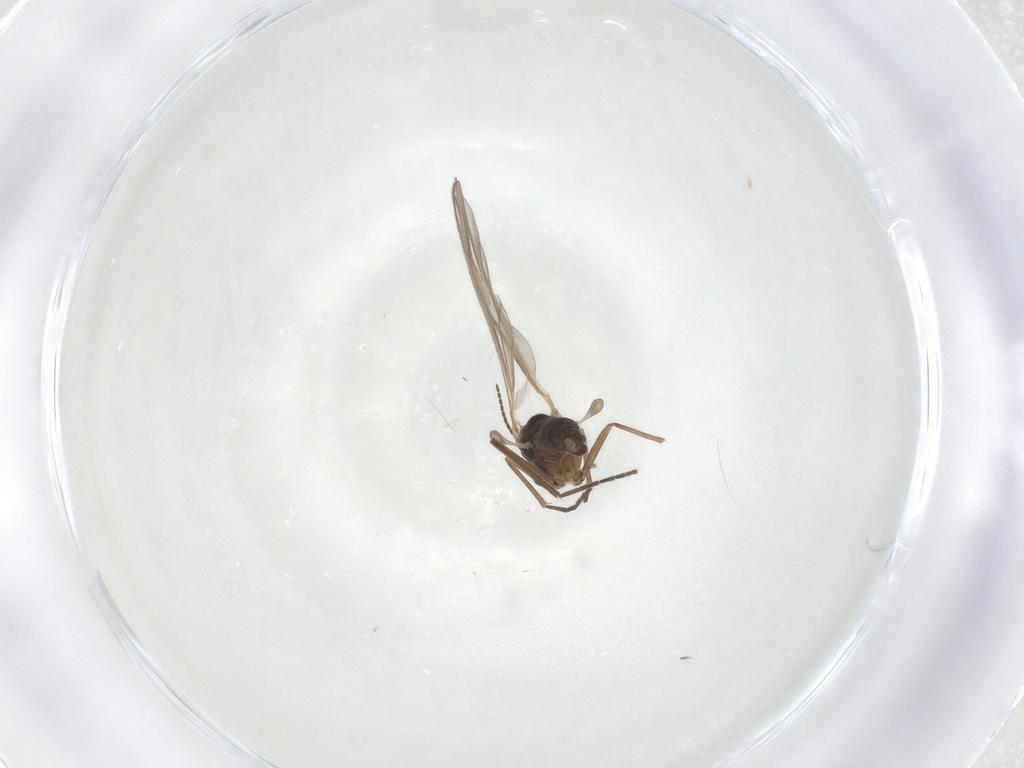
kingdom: Animalia
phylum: Arthropoda
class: Insecta
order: Diptera
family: Sciaridae
